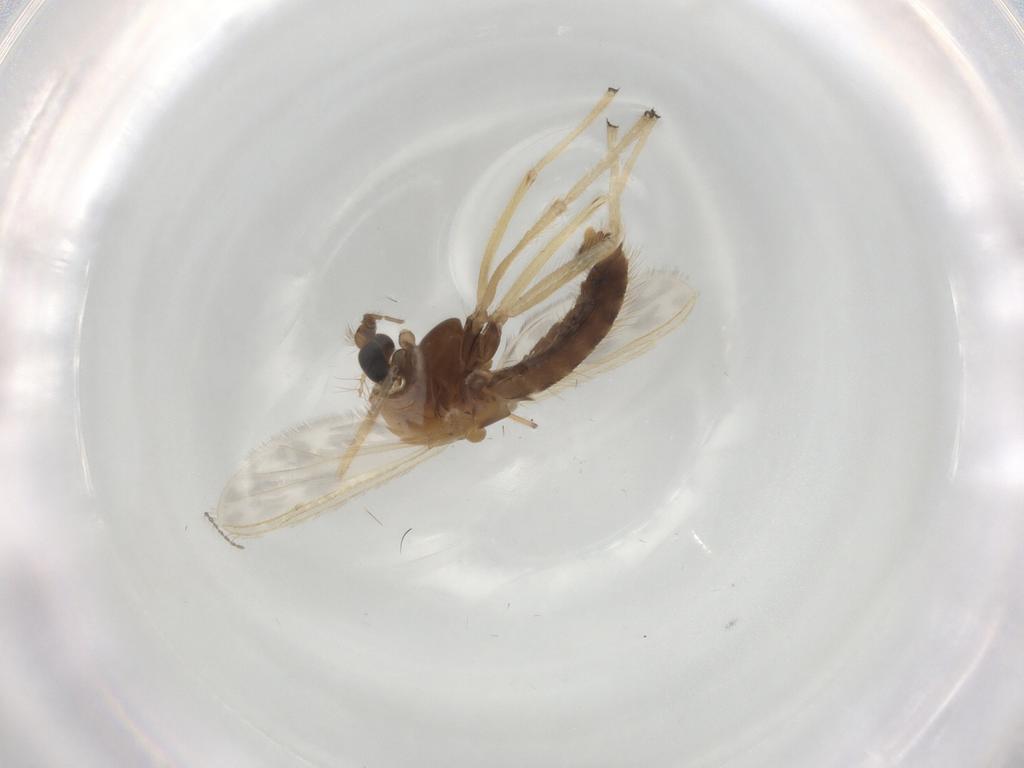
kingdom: Animalia
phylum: Arthropoda
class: Insecta
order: Diptera
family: Chironomidae
